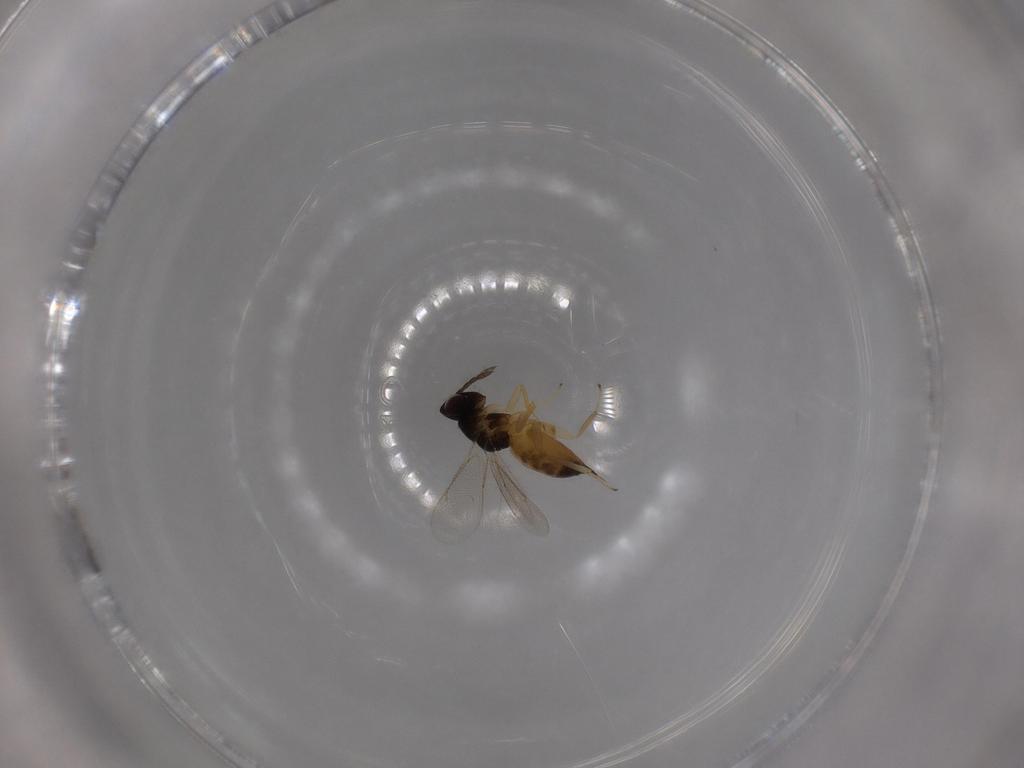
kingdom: Animalia
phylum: Arthropoda
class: Insecta
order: Hymenoptera
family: Eulophidae
